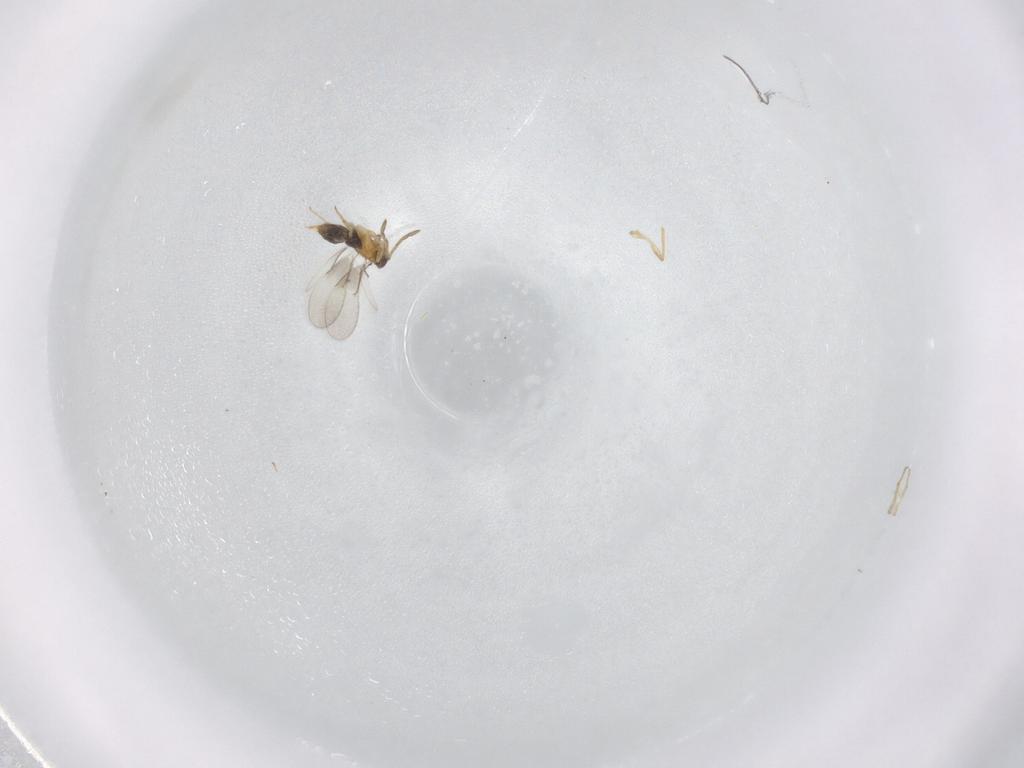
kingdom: Animalia
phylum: Arthropoda
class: Insecta
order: Hymenoptera
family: Aphelinidae
